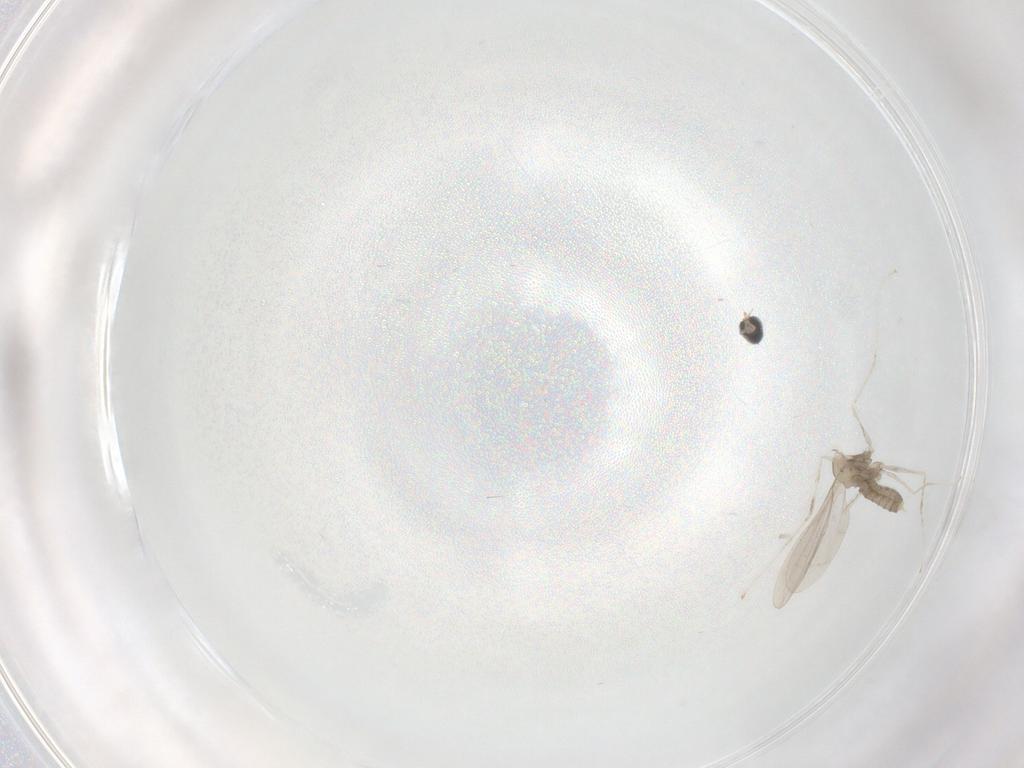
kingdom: Animalia
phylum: Arthropoda
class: Insecta
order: Diptera
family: Cecidomyiidae
